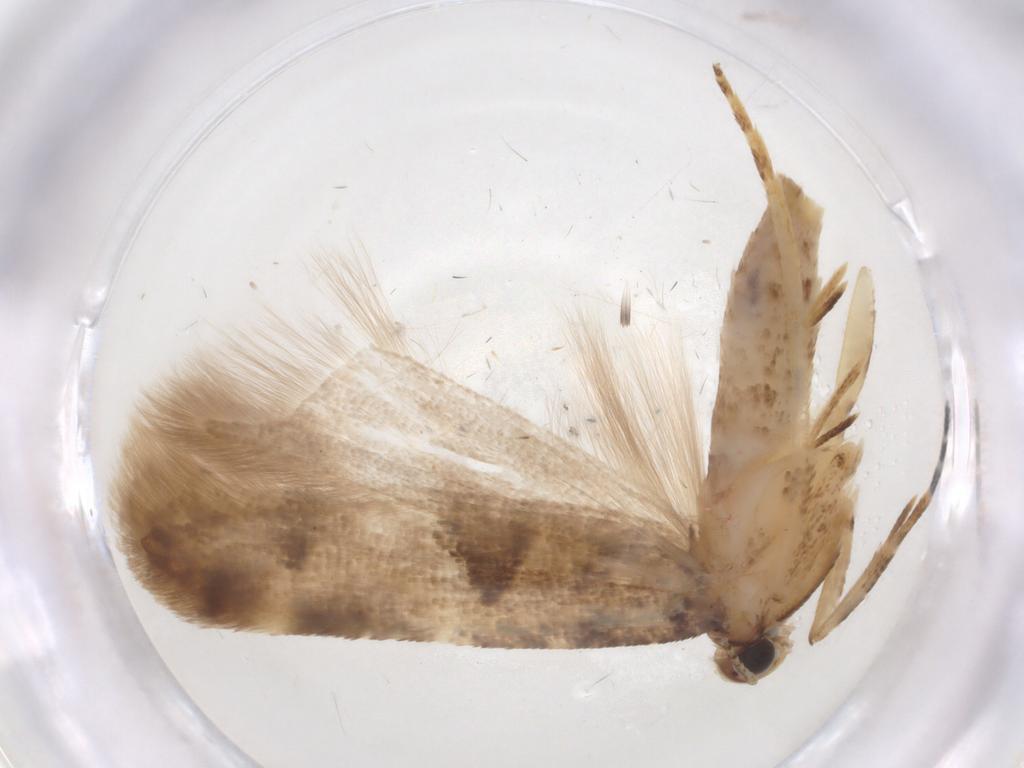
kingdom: Animalia
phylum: Arthropoda
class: Insecta
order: Lepidoptera
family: Gelechiidae
